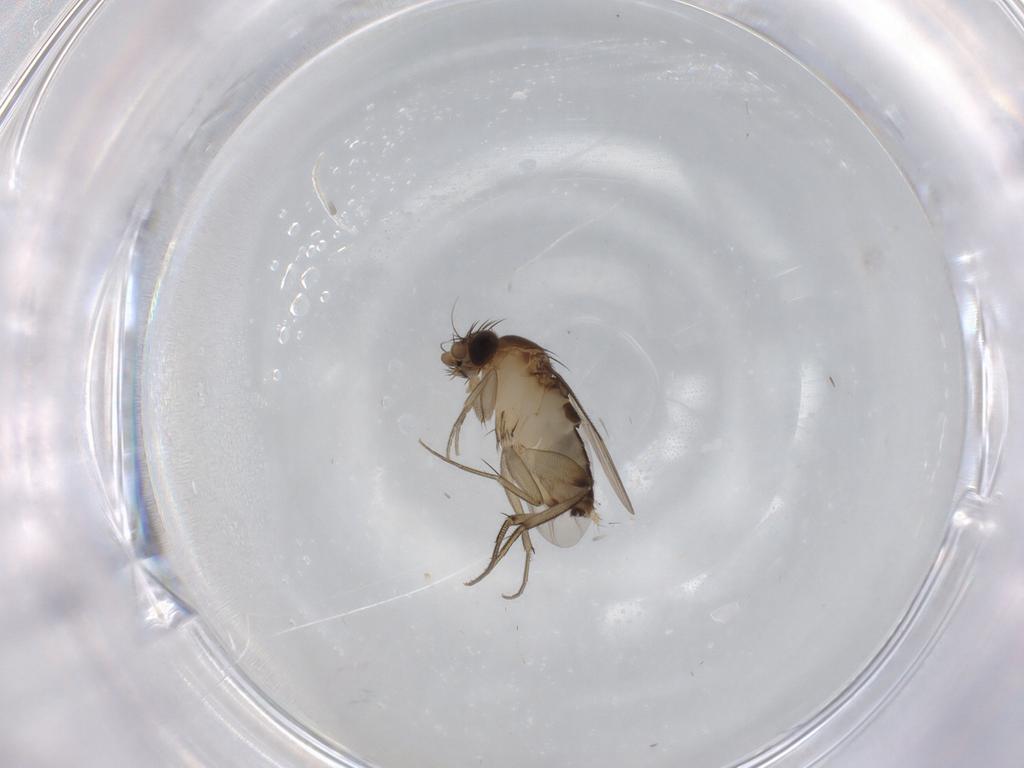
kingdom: Animalia
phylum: Arthropoda
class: Insecta
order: Diptera
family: Phoridae
